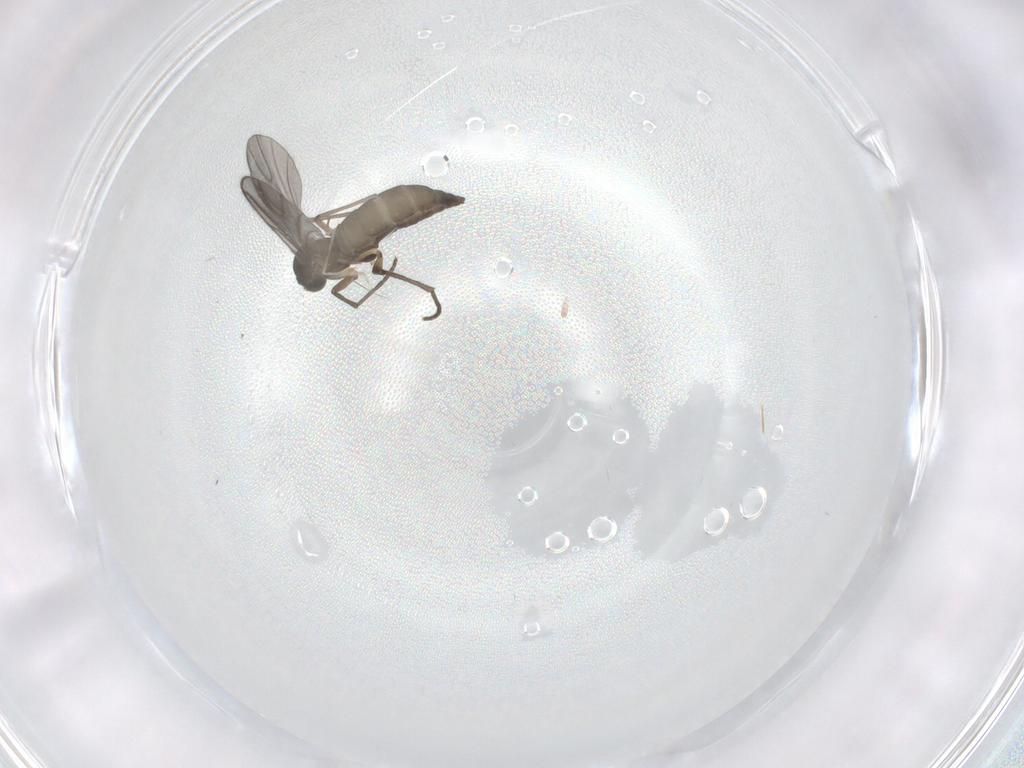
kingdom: Animalia
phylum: Arthropoda
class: Insecta
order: Diptera
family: Sciaridae
